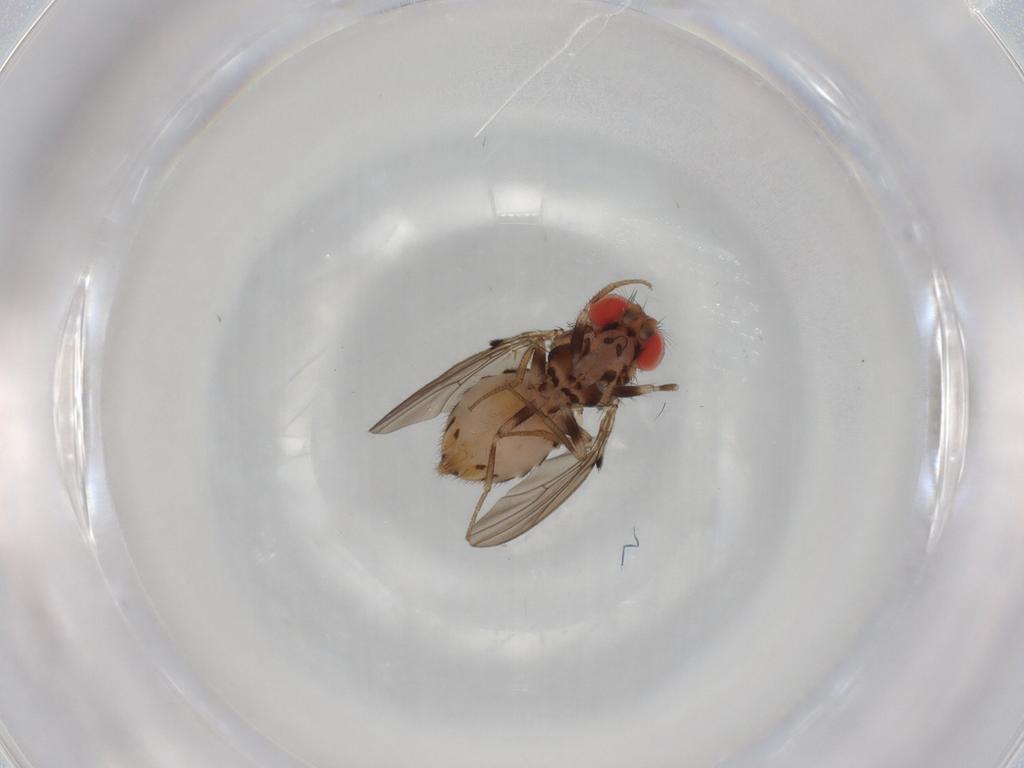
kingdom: Animalia
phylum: Arthropoda
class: Insecta
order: Diptera
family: Drosophilidae
